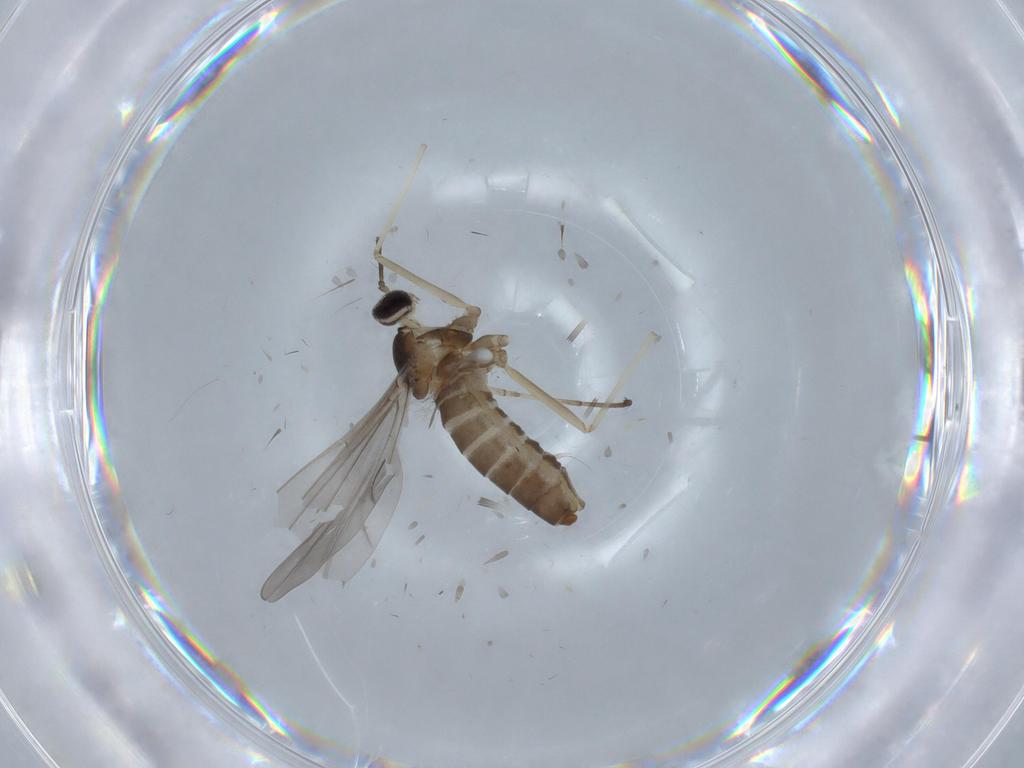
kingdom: Animalia
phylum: Arthropoda
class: Insecta
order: Diptera
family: Cecidomyiidae
